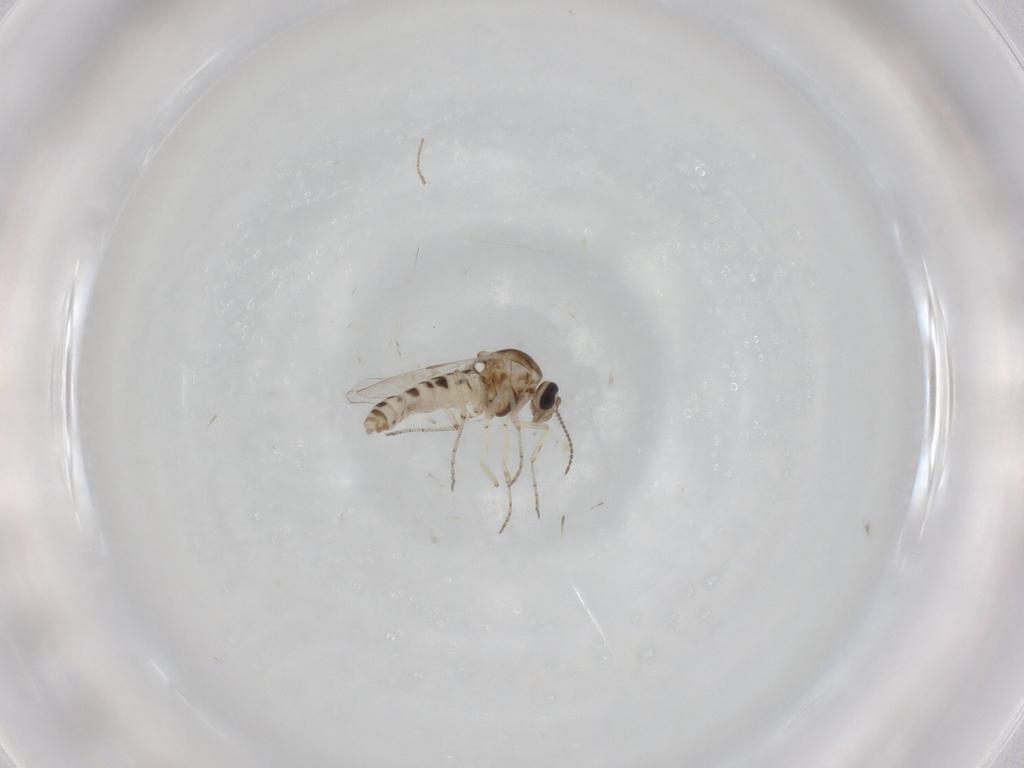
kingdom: Animalia
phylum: Arthropoda
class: Insecta
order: Diptera
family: Ceratopogonidae
